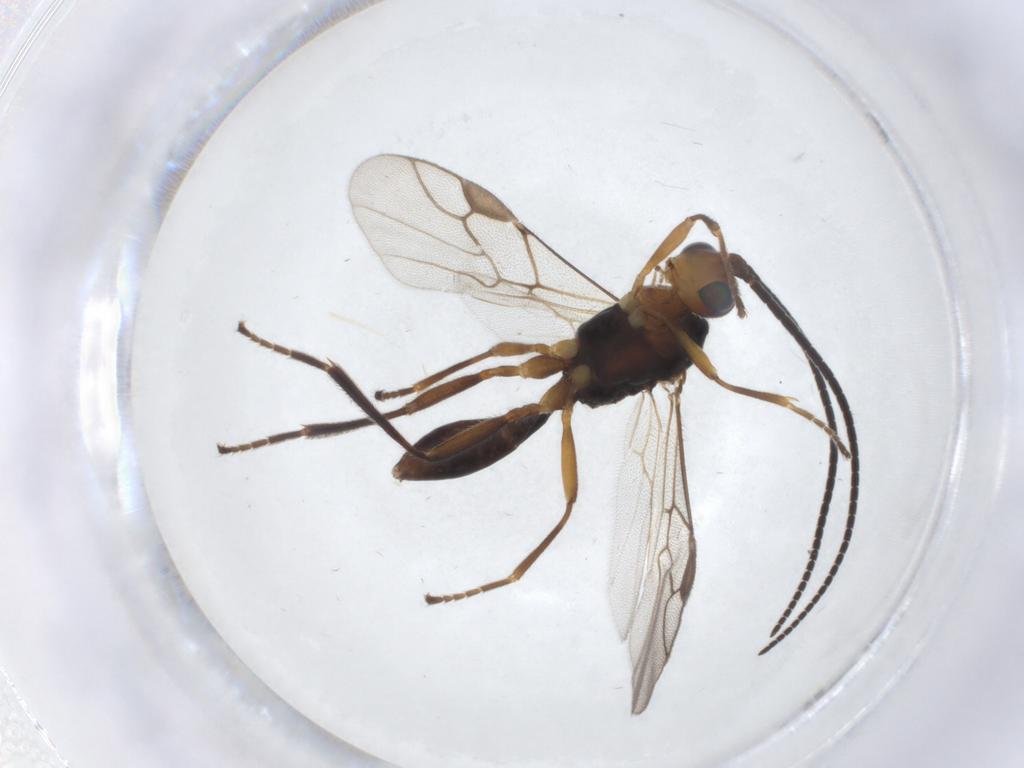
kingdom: Animalia
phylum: Arthropoda
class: Insecta
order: Hymenoptera
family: Braconidae
